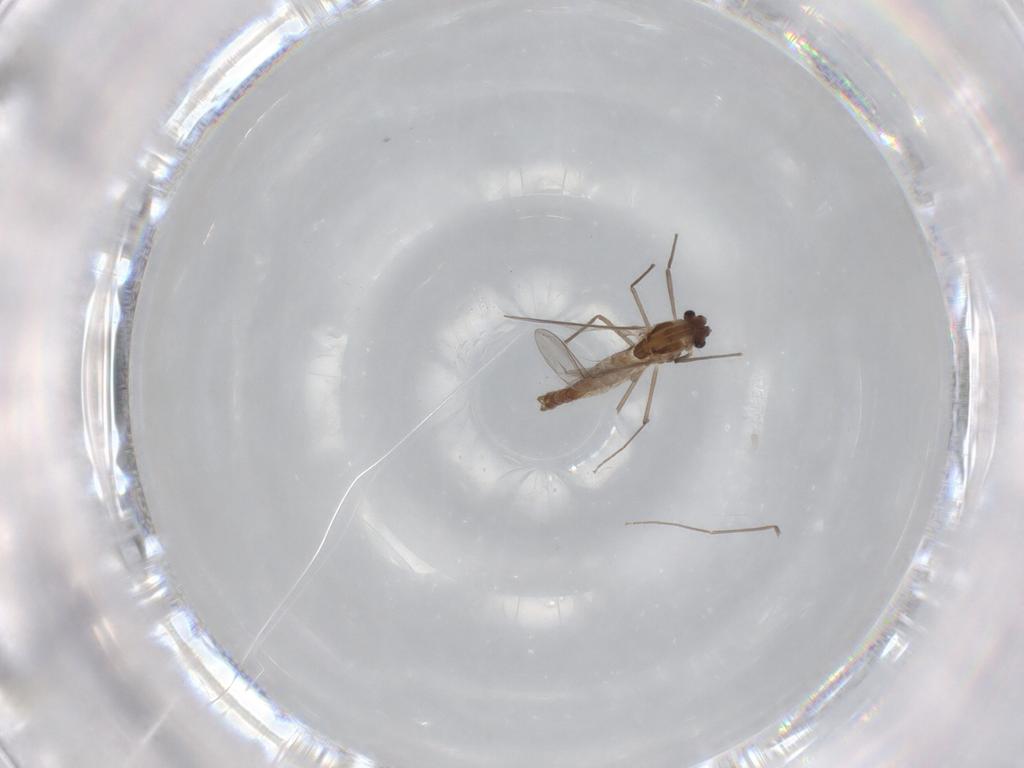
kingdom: Animalia
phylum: Arthropoda
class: Insecta
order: Diptera
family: Chironomidae
